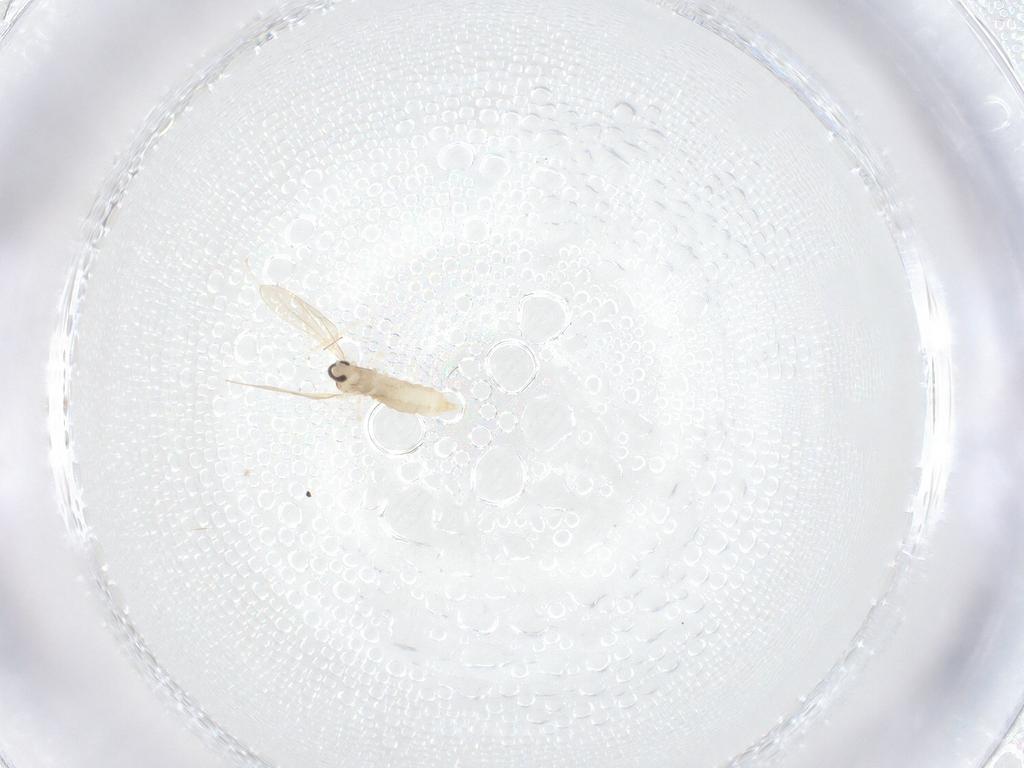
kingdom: Animalia
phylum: Arthropoda
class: Insecta
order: Diptera
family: Cecidomyiidae
